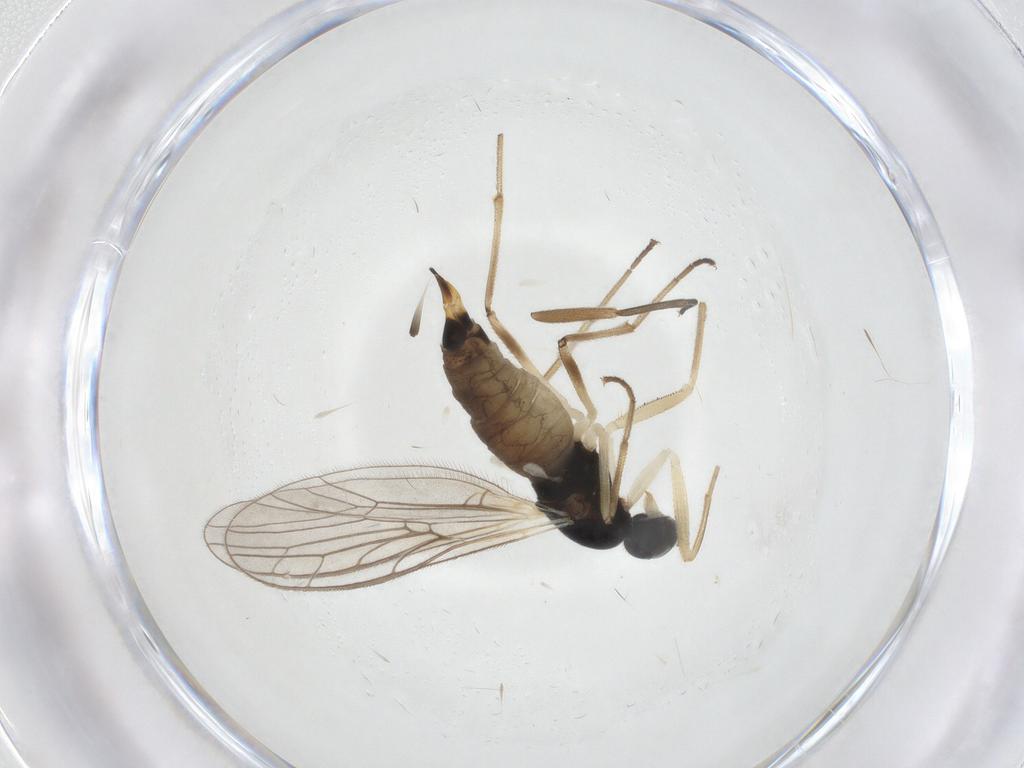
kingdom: Animalia
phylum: Arthropoda
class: Insecta
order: Diptera
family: Empididae
